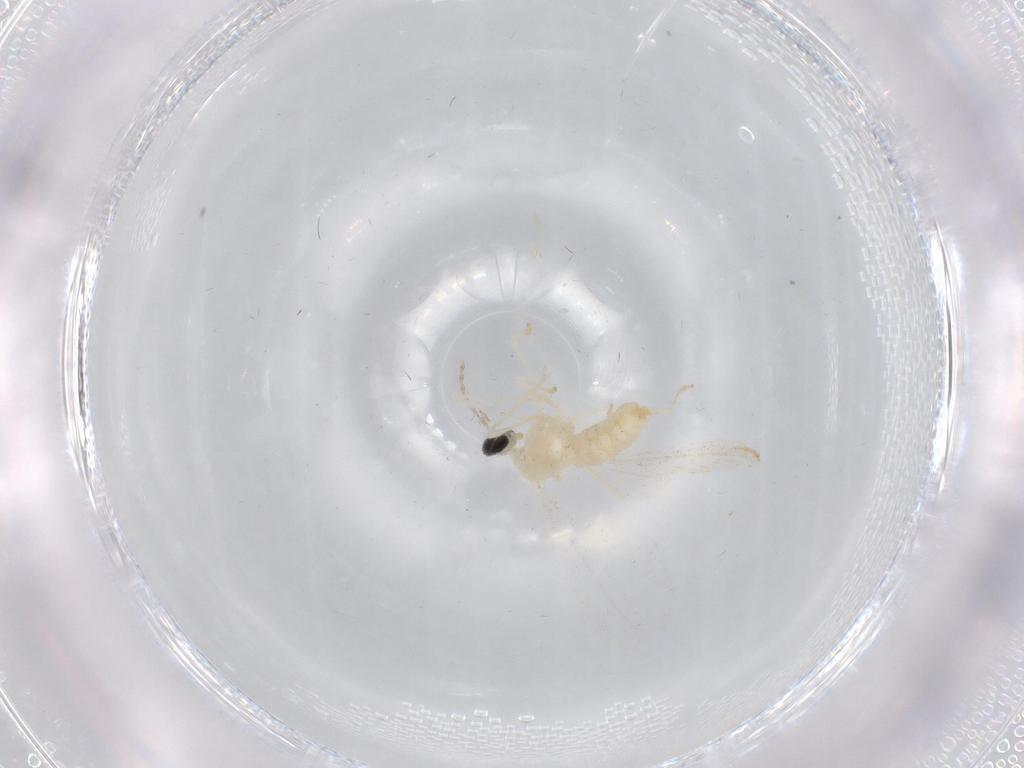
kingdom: Animalia
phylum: Arthropoda
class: Insecta
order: Diptera
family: Cecidomyiidae
